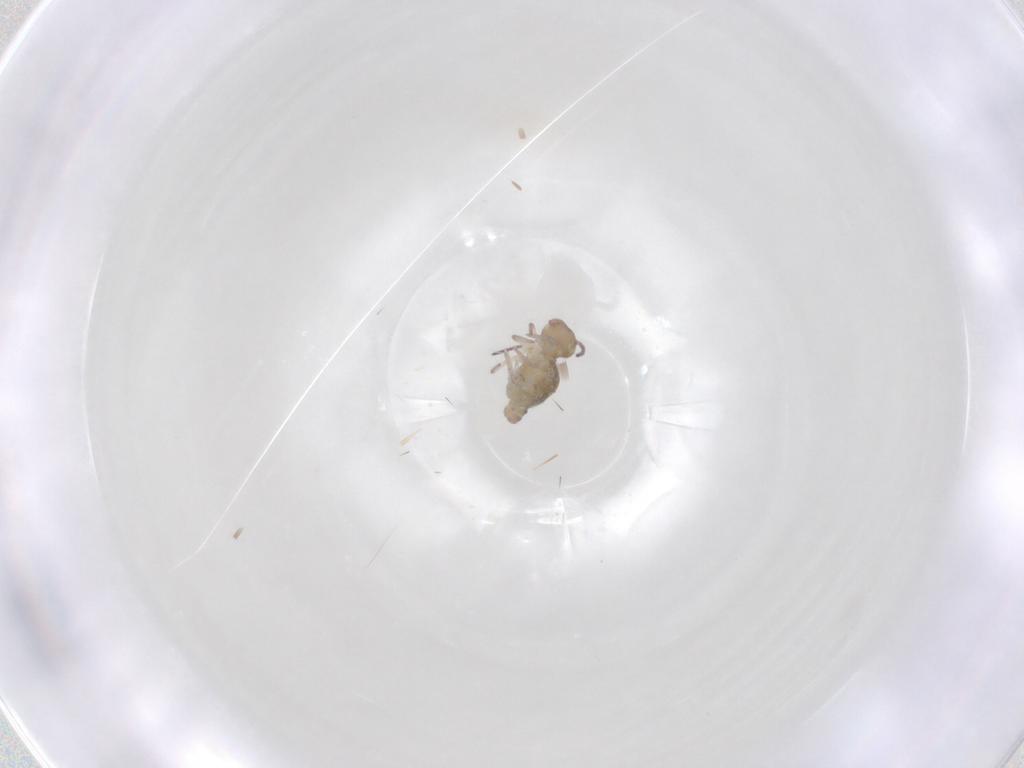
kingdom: Animalia
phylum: Arthropoda
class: Collembola
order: Symphypleona
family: Bourletiellidae
